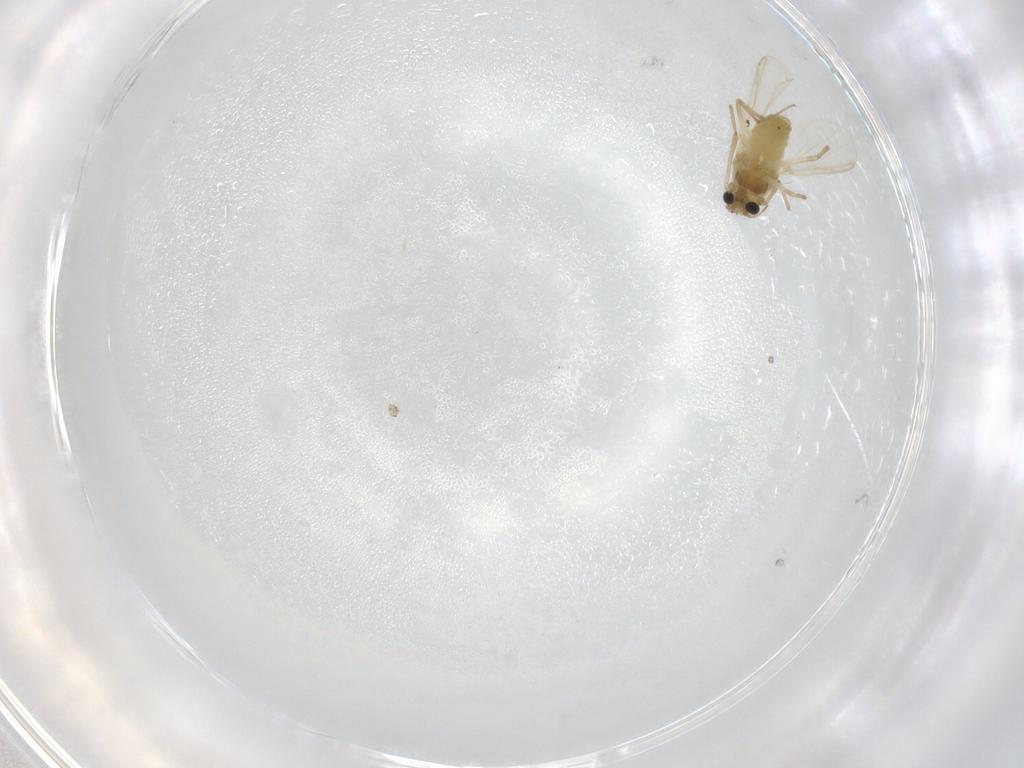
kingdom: Animalia
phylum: Arthropoda
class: Insecta
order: Diptera
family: Chironomidae
